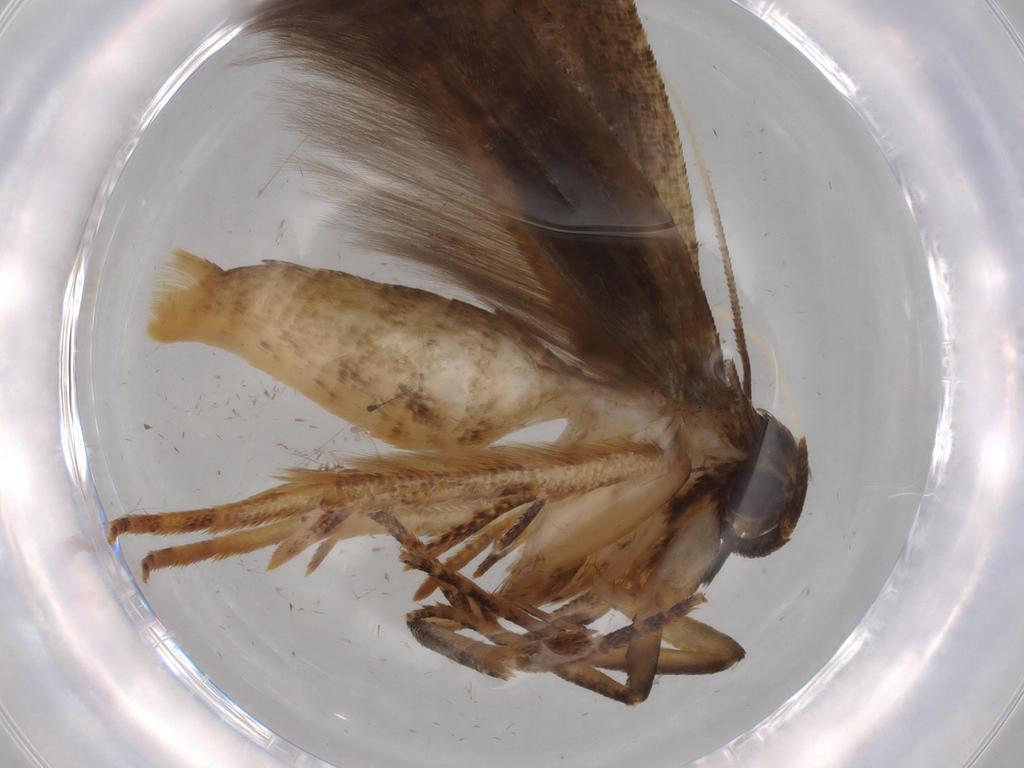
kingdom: Animalia
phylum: Arthropoda
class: Insecta
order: Lepidoptera
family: Cosmopterigidae
